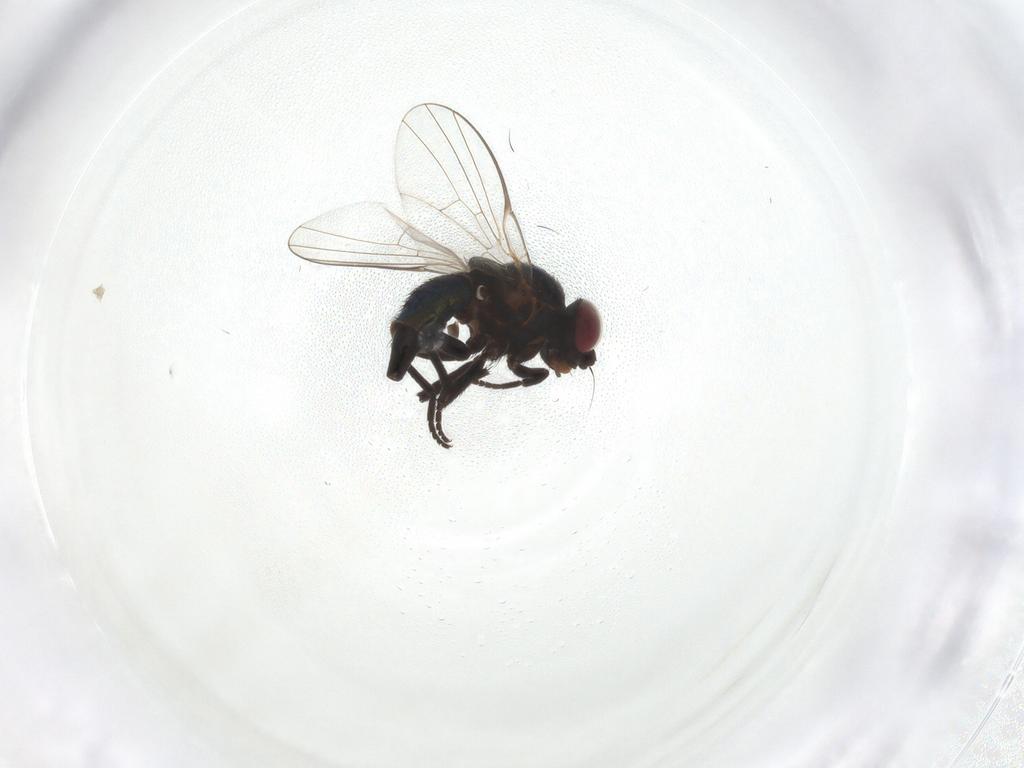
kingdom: Animalia
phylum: Arthropoda
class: Insecta
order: Diptera
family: Agromyzidae
